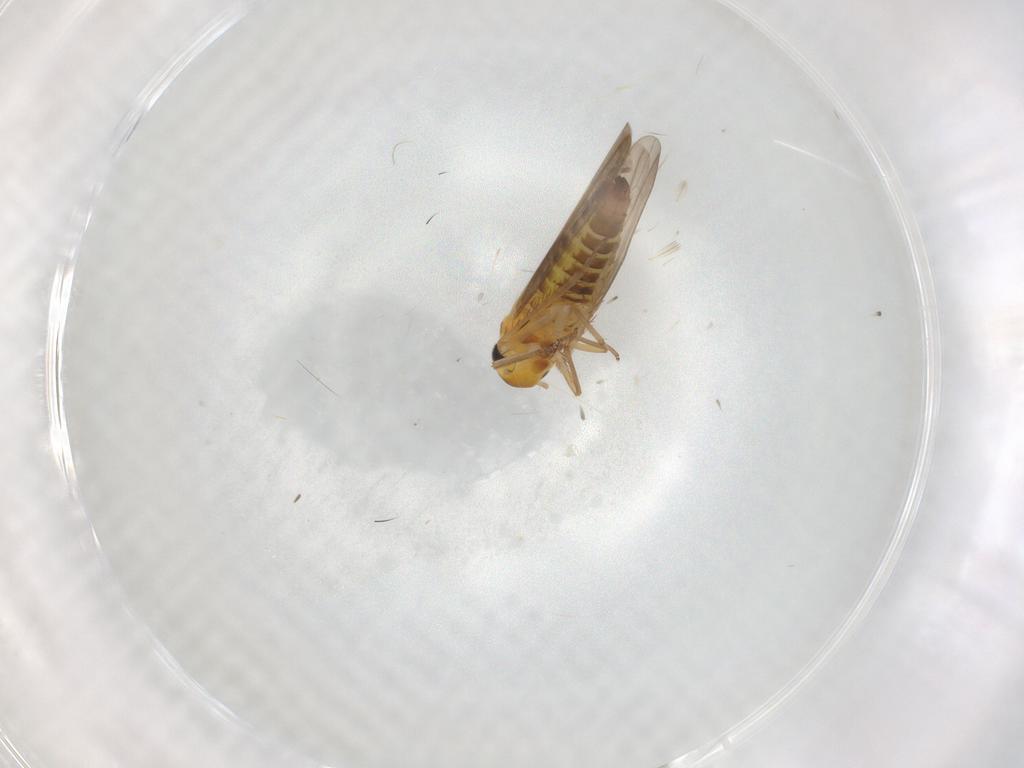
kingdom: Animalia
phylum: Arthropoda
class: Insecta
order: Hemiptera
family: Cicadellidae
